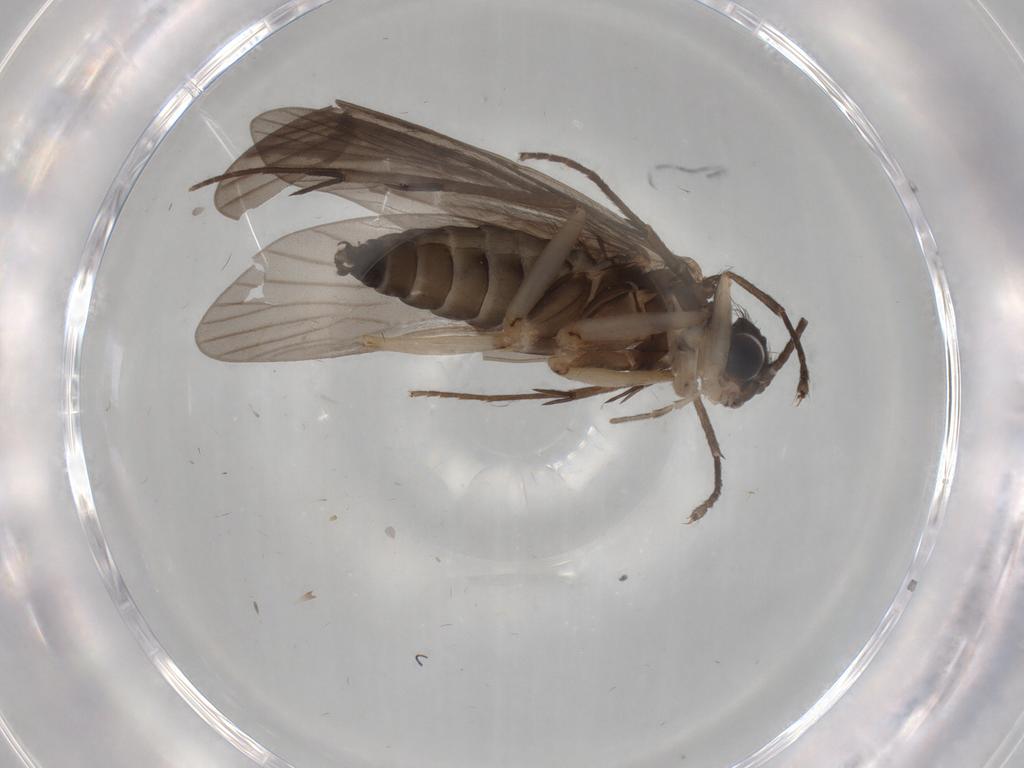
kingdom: Animalia
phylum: Arthropoda
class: Insecta
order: Trichoptera
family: Philopotamidae
